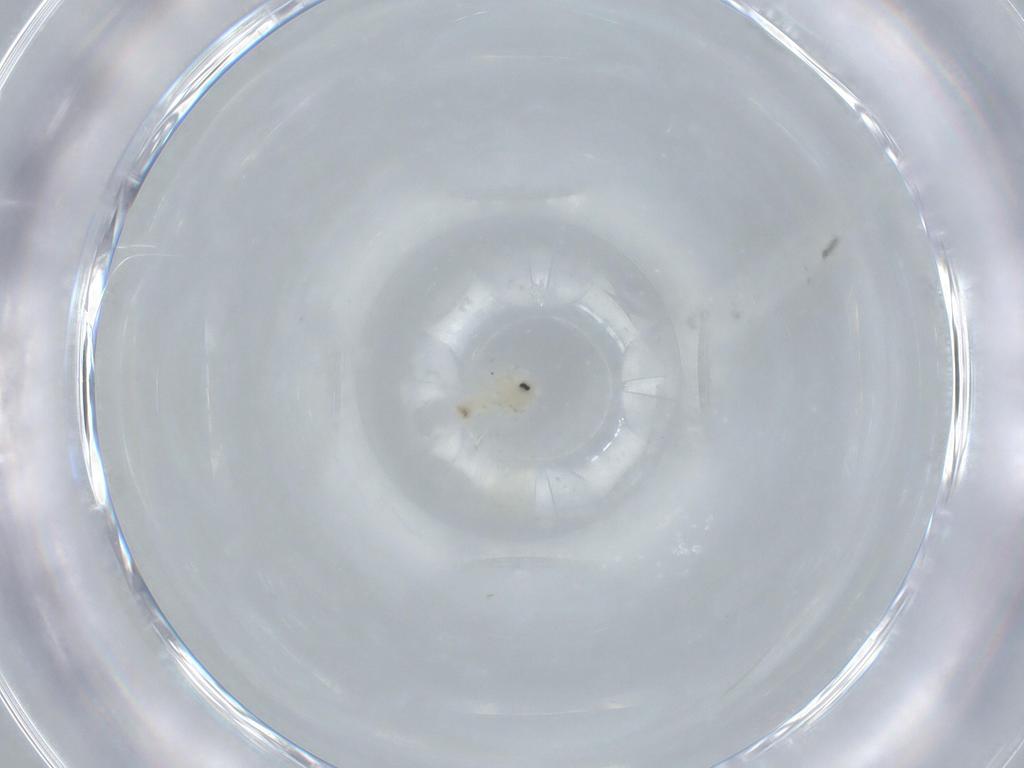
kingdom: Animalia
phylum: Arthropoda
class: Insecta
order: Hemiptera
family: Aleyrodidae
